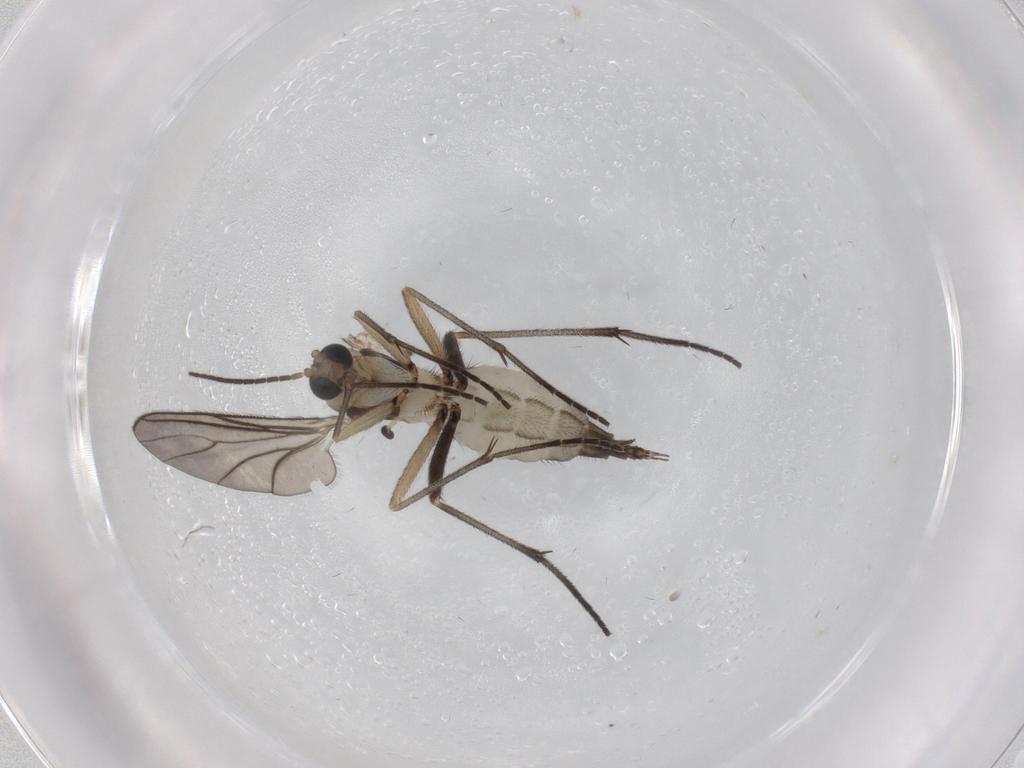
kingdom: Animalia
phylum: Arthropoda
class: Insecta
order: Diptera
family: Sciaridae
